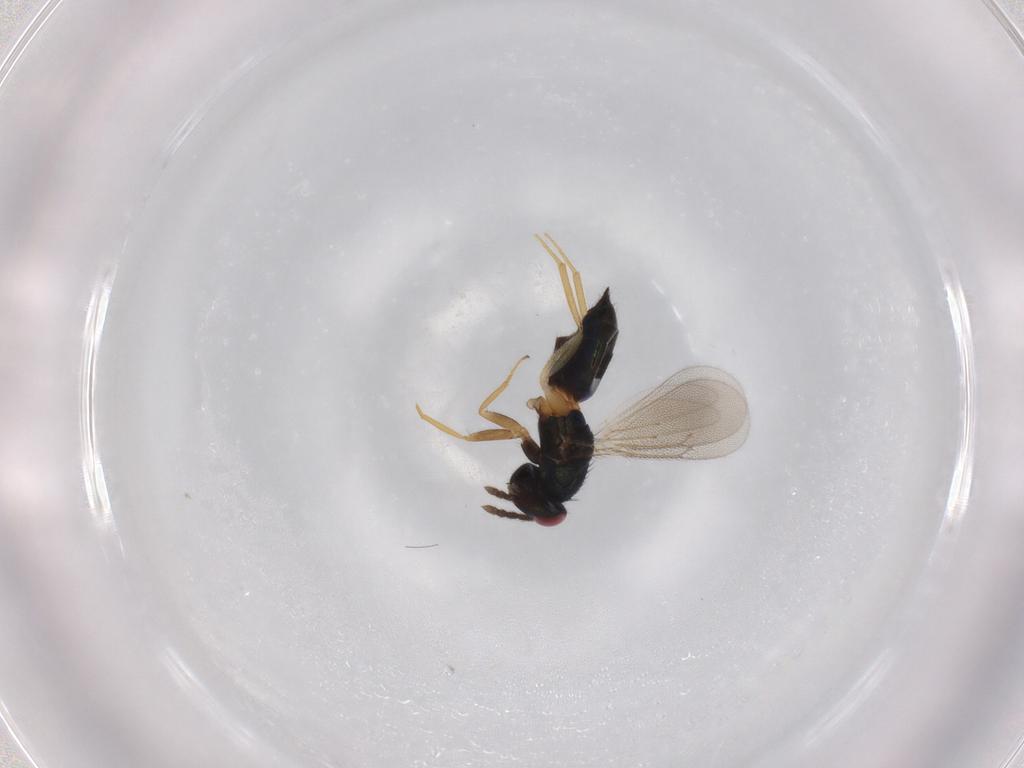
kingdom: Animalia
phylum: Arthropoda
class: Insecta
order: Hymenoptera
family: Eulophidae
